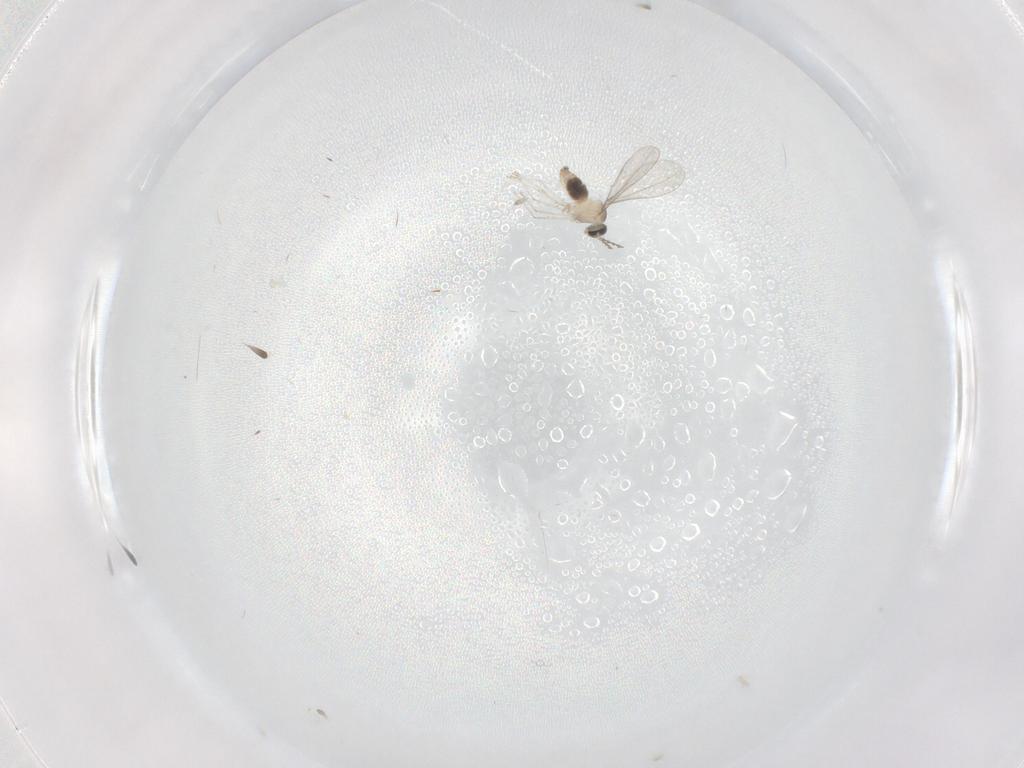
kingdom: Animalia
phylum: Arthropoda
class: Insecta
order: Diptera
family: Cecidomyiidae
